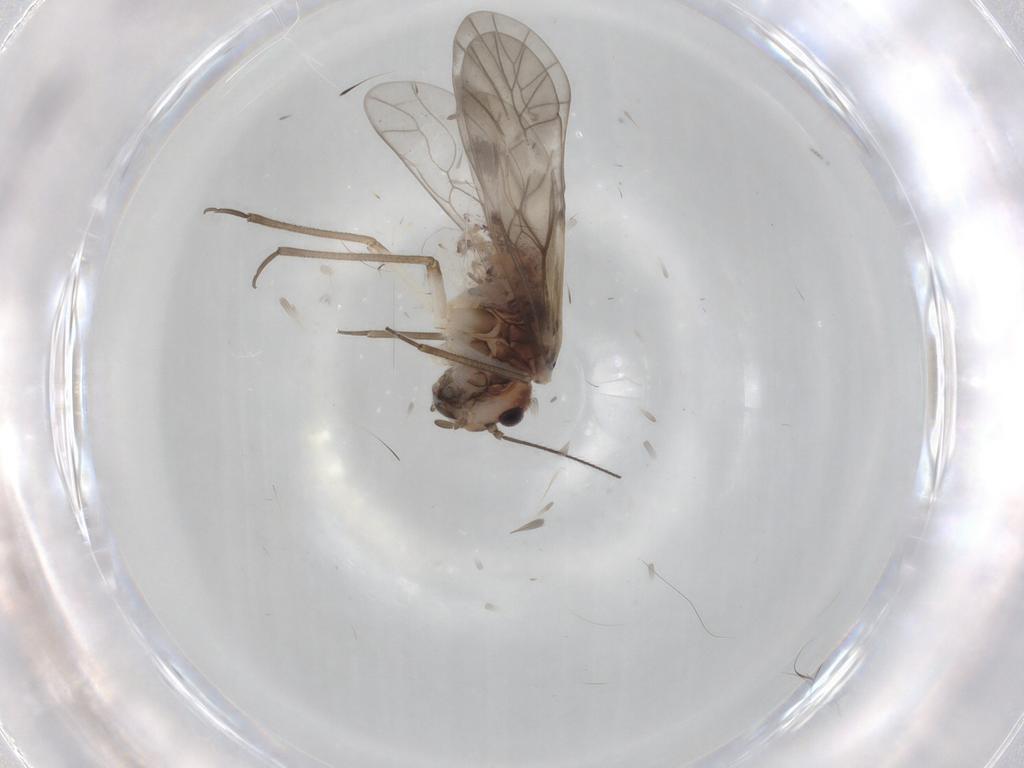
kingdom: Animalia
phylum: Arthropoda
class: Insecta
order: Psocodea
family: Psocidae
